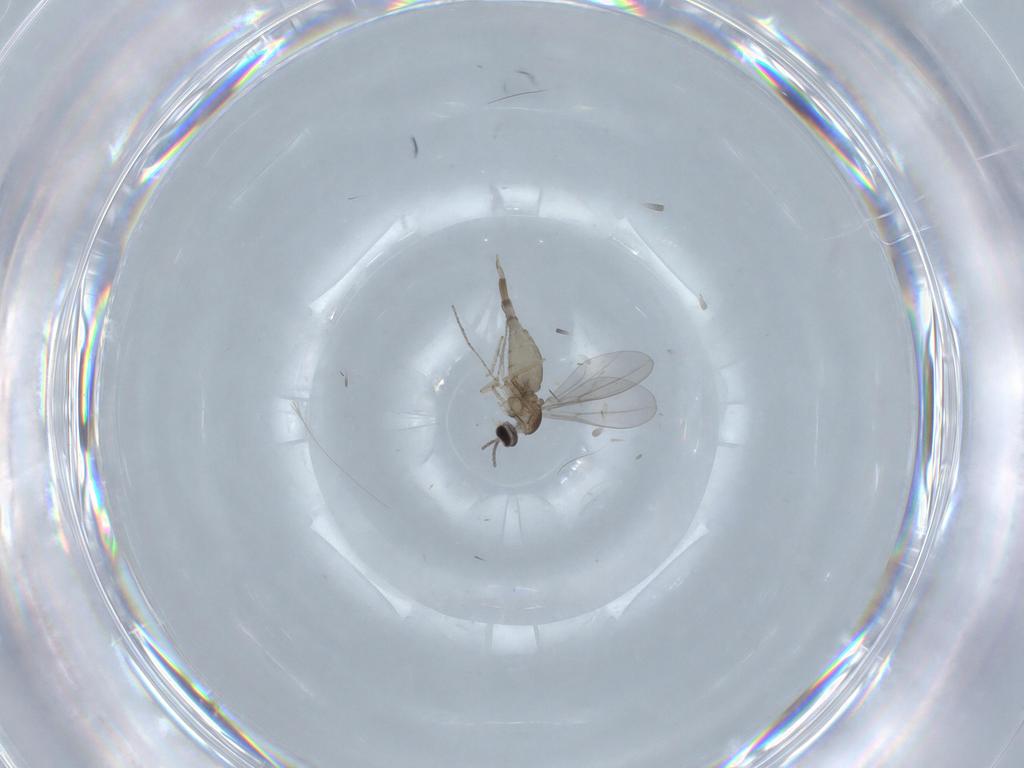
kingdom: Animalia
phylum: Arthropoda
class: Insecta
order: Diptera
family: Cecidomyiidae
